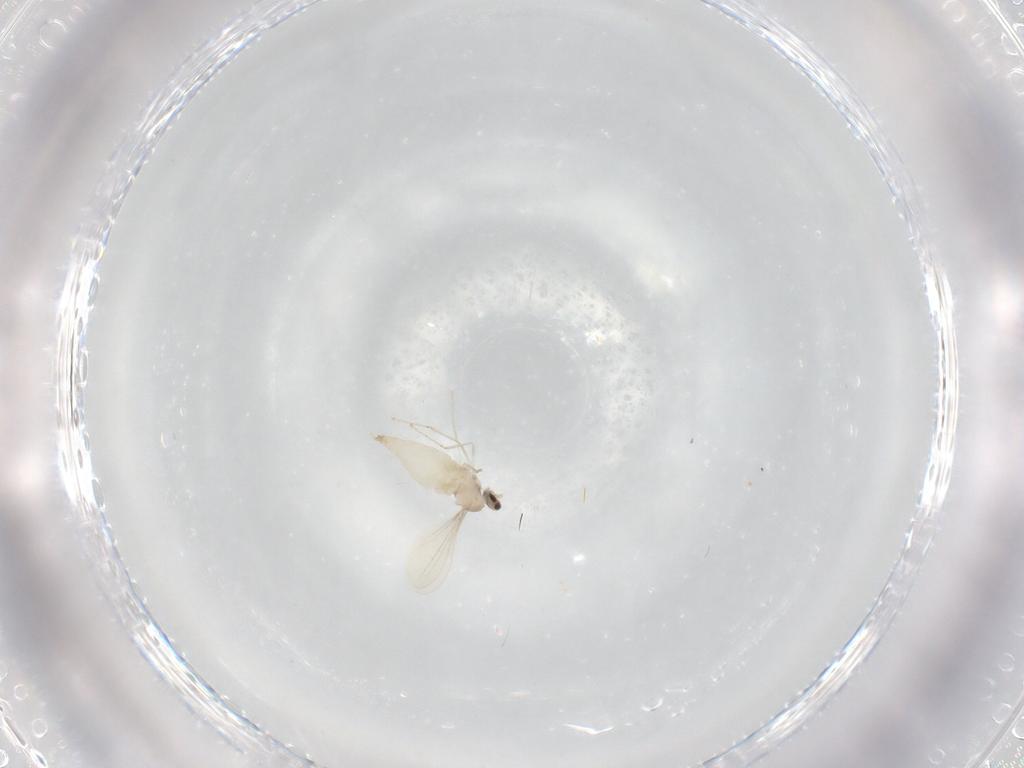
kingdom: Animalia
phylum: Arthropoda
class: Insecta
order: Diptera
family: Cecidomyiidae
